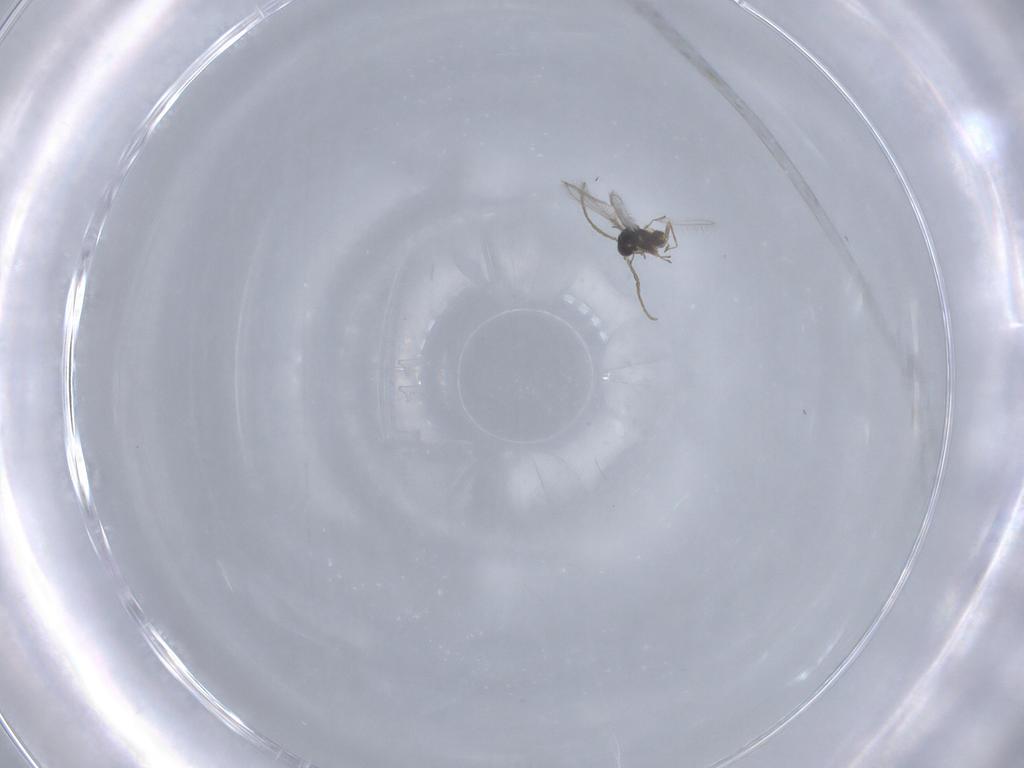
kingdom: Animalia
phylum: Arthropoda
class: Insecta
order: Hymenoptera
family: Mymaridae
